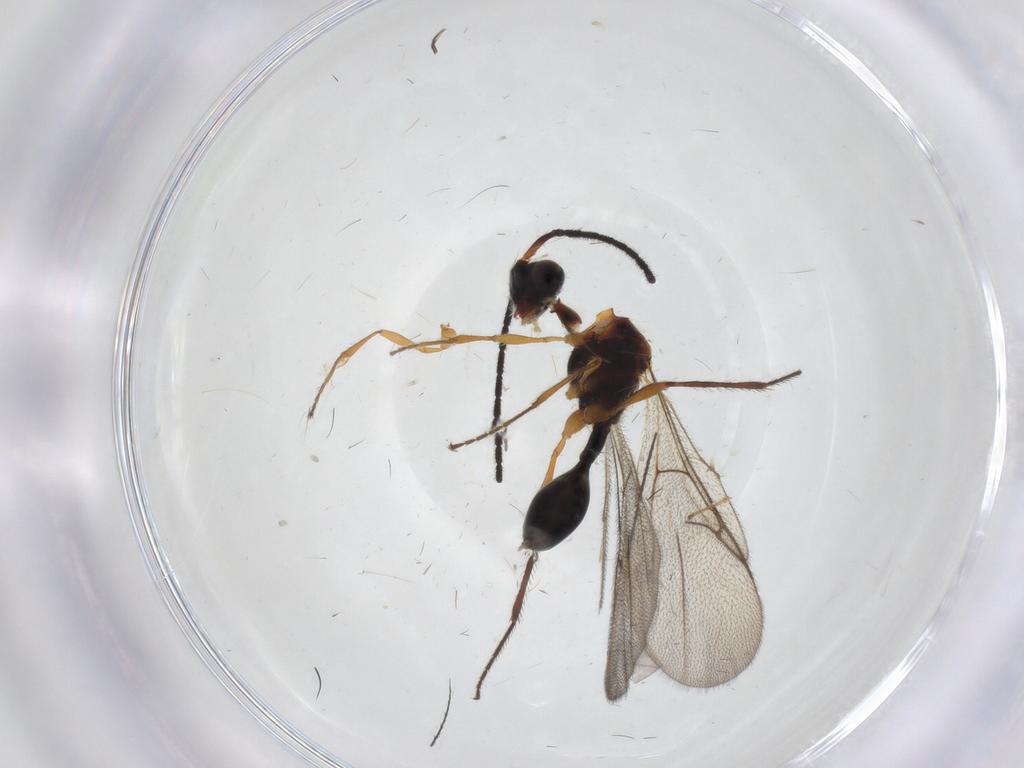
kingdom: Animalia
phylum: Arthropoda
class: Insecta
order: Hymenoptera
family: Diapriidae
